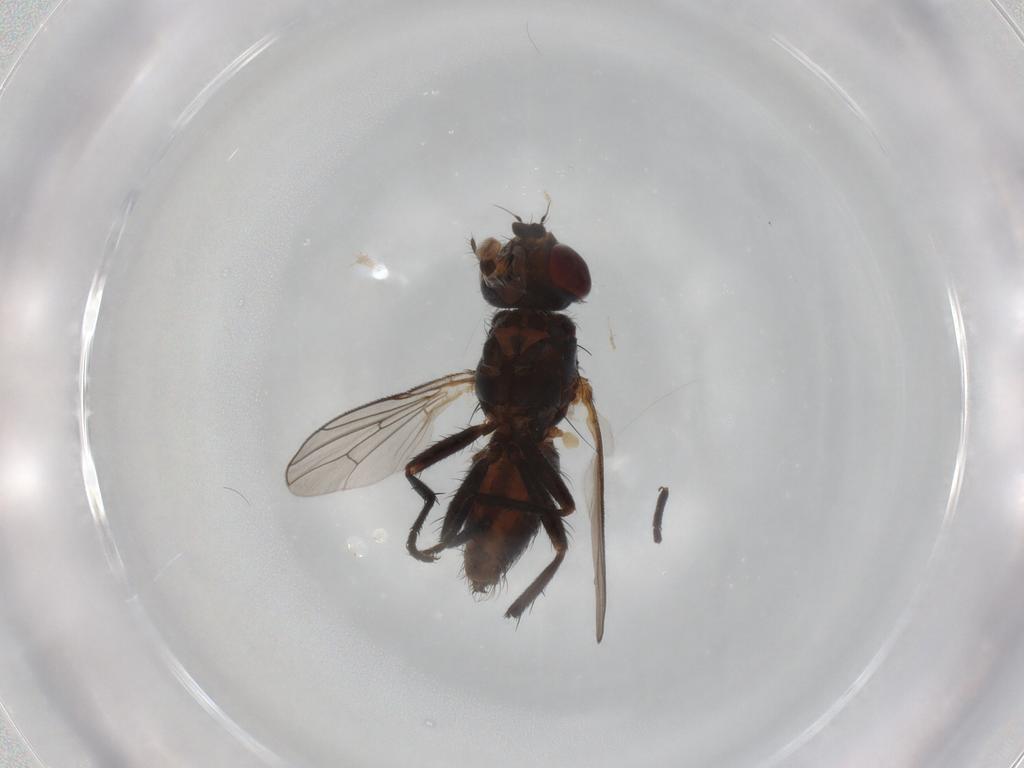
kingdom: Animalia
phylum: Arthropoda
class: Insecta
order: Diptera
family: Anthomyiidae
